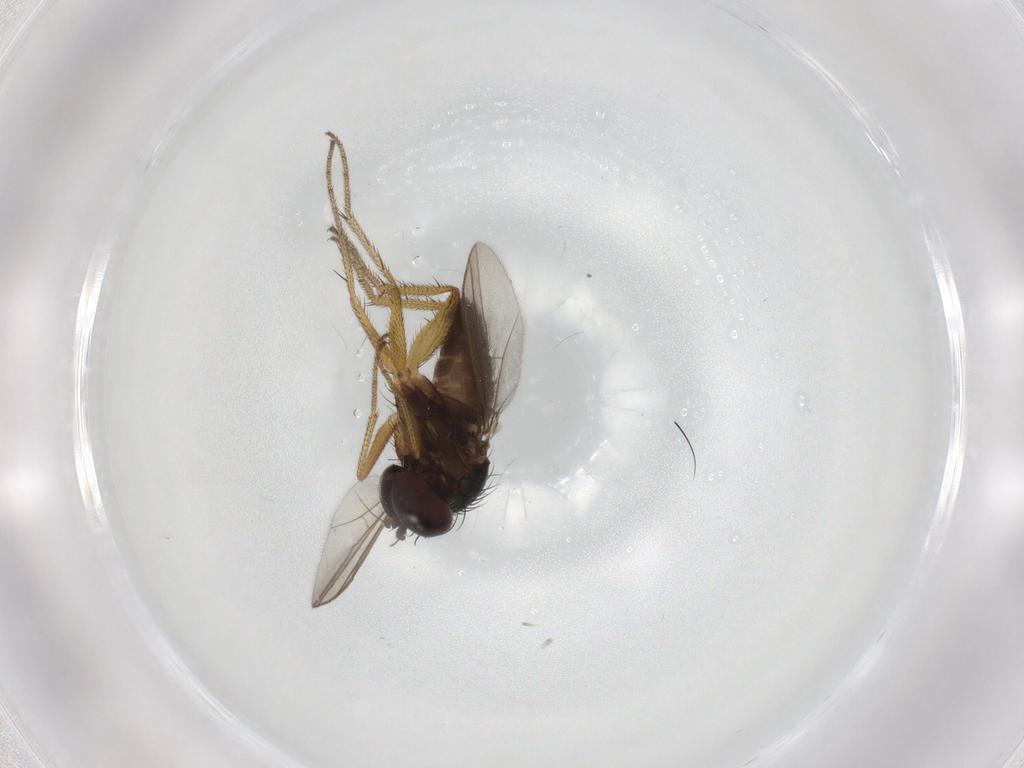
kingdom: Animalia
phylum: Arthropoda
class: Insecta
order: Diptera
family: Dolichopodidae
